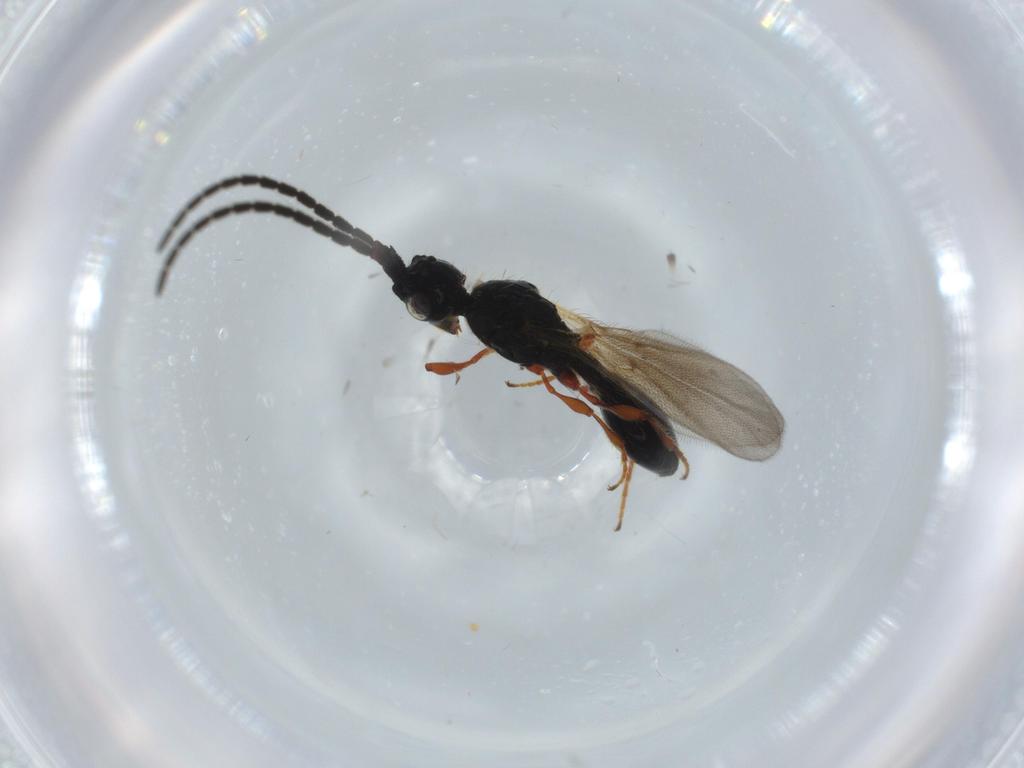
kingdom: Animalia
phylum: Arthropoda
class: Insecta
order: Hymenoptera
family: Diapriidae
